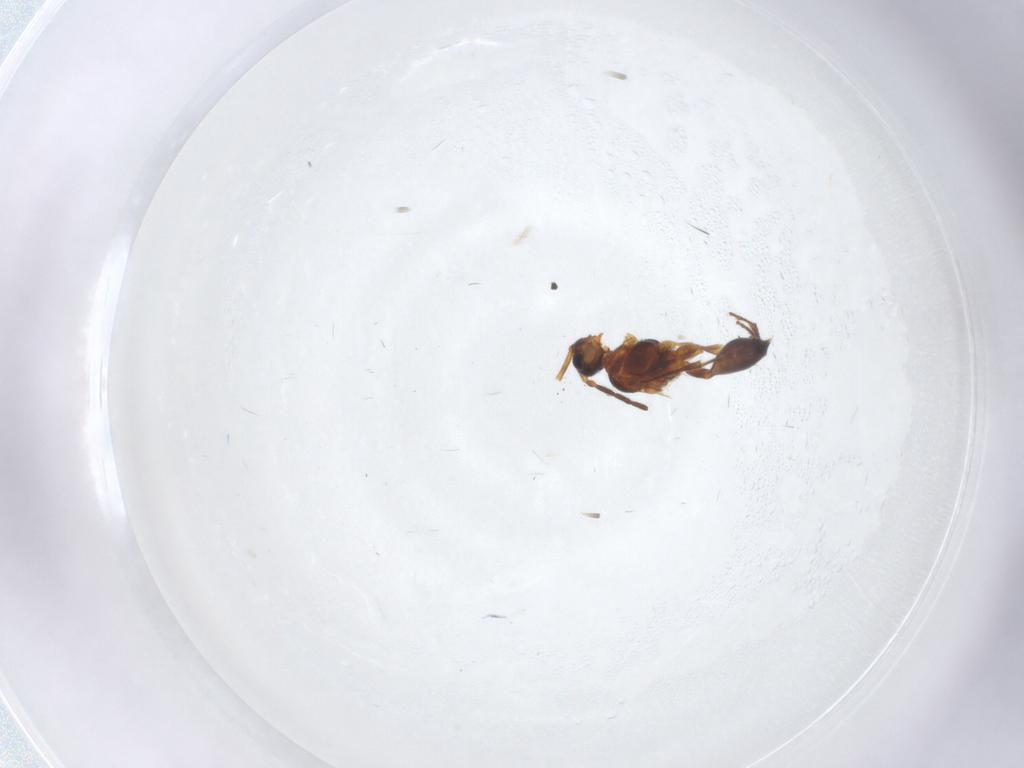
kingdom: Animalia
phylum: Arthropoda
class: Insecta
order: Hymenoptera
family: Diapriidae
